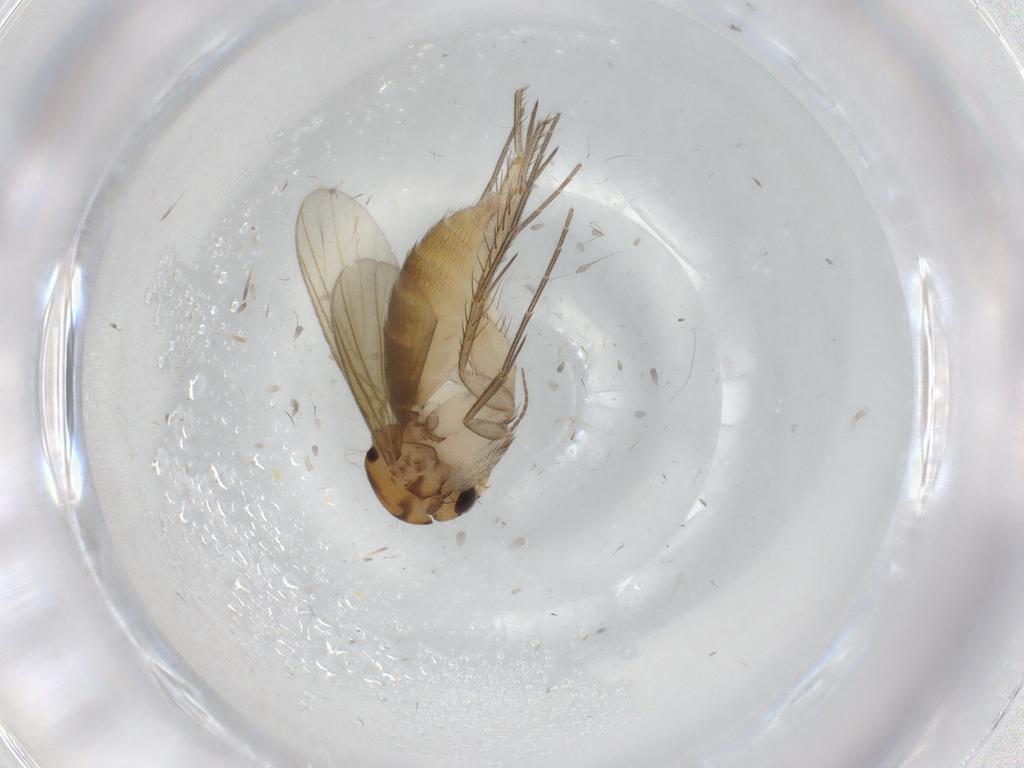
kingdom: Animalia
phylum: Arthropoda
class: Insecta
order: Diptera
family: Mycetophilidae
